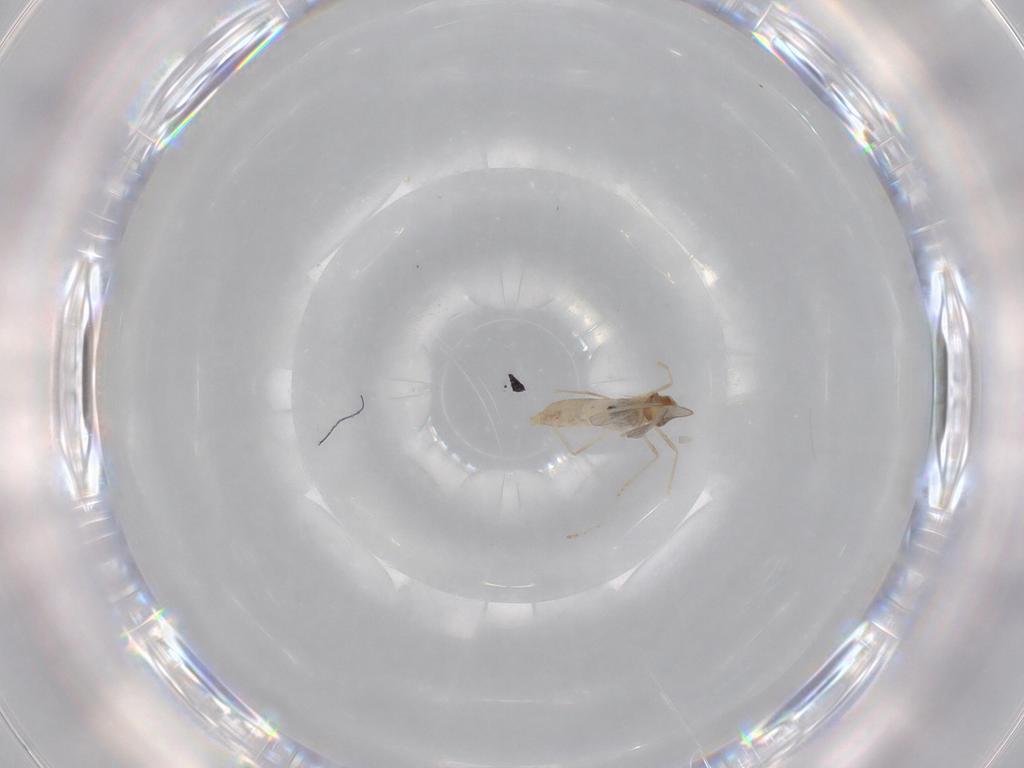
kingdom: Animalia
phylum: Arthropoda
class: Insecta
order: Diptera
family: Cecidomyiidae
